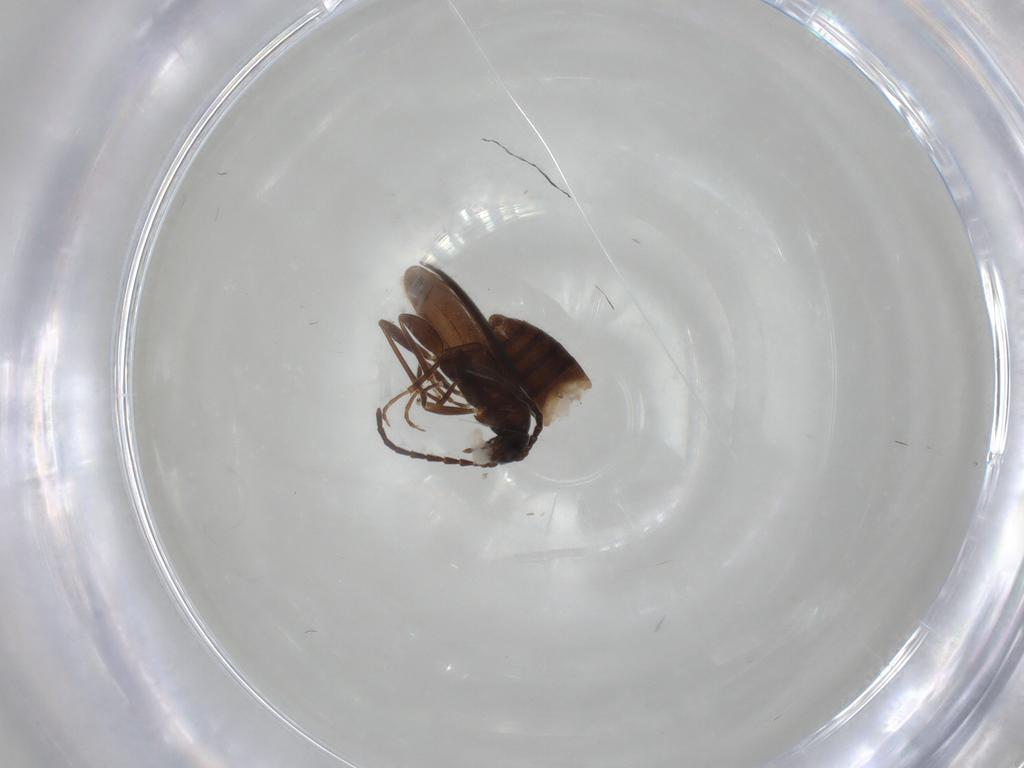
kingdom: Animalia
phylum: Arthropoda
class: Insecta
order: Coleoptera
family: Scraptiidae
